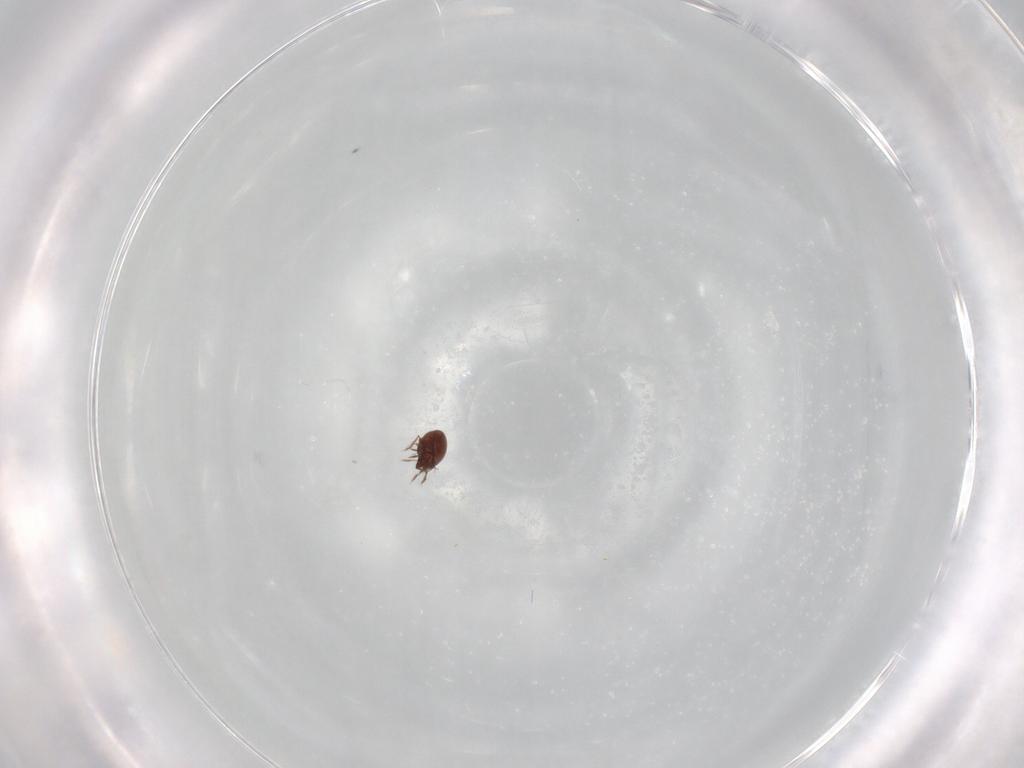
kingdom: Animalia
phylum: Arthropoda
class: Arachnida
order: Sarcoptiformes
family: Ceratozetidae
